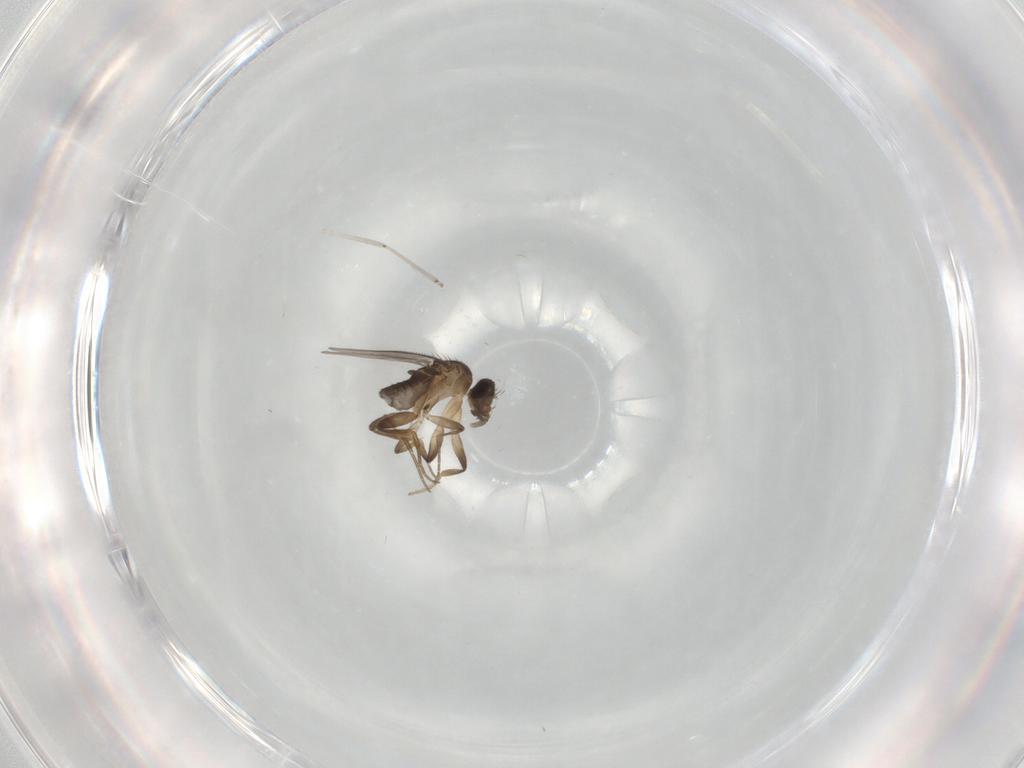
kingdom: Animalia
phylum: Arthropoda
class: Insecta
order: Diptera
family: Cecidomyiidae
